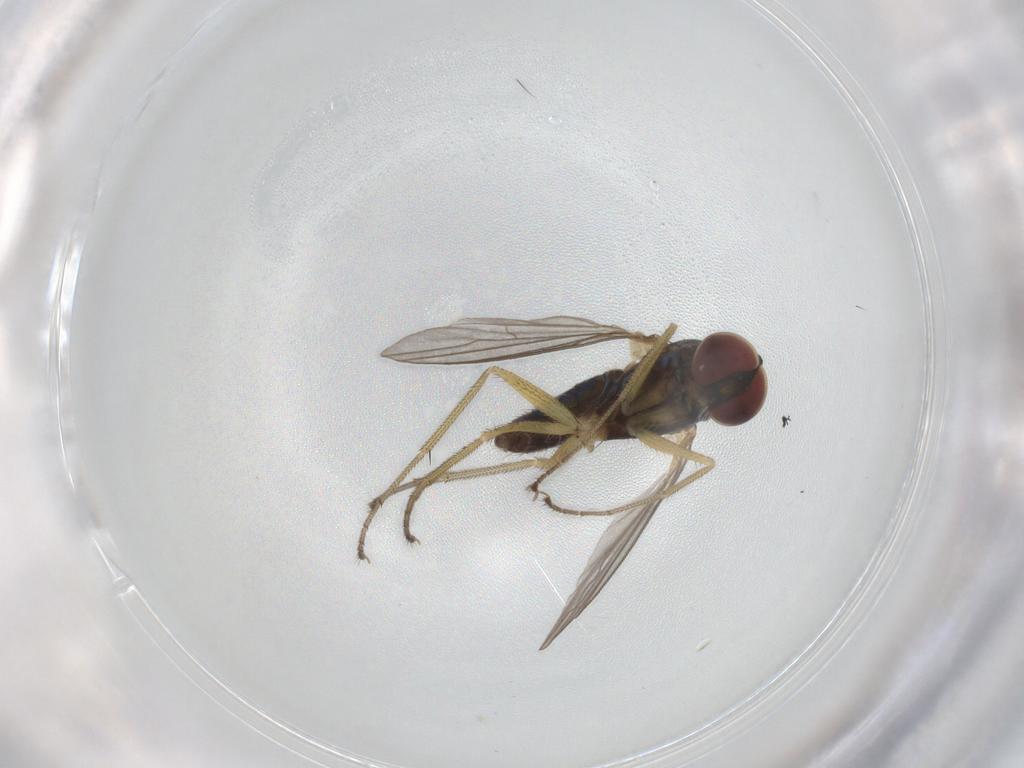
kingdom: Animalia
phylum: Arthropoda
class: Insecta
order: Diptera
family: Dolichopodidae
